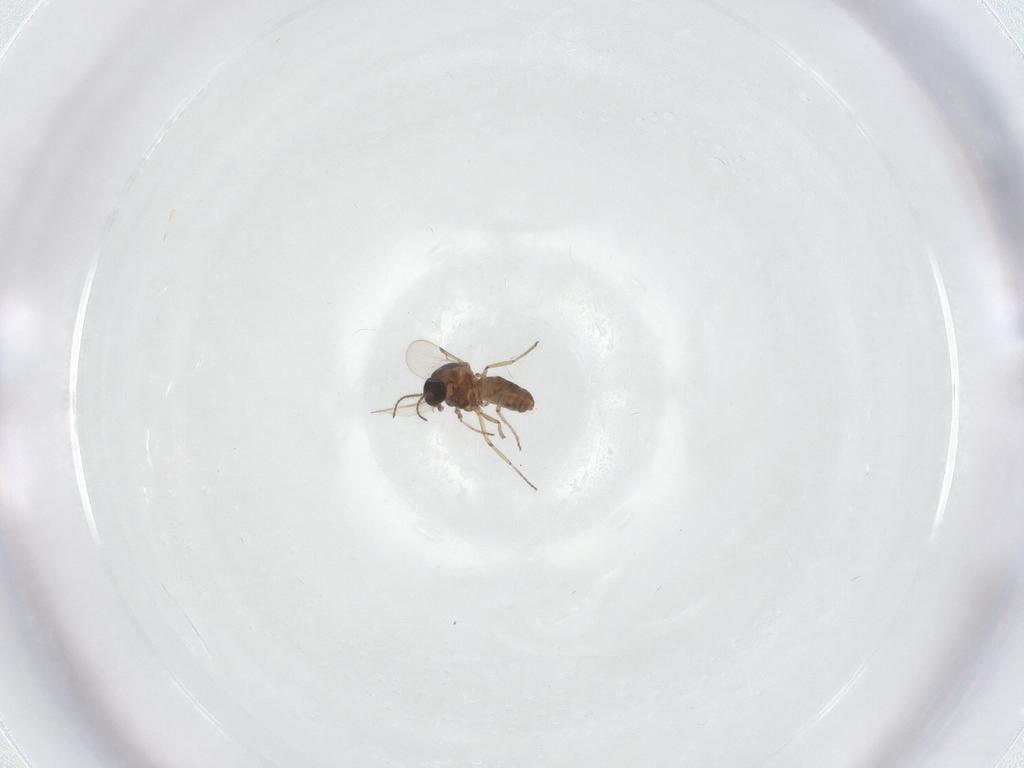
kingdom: Animalia
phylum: Arthropoda
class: Insecta
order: Diptera
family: Ceratopogonidae
